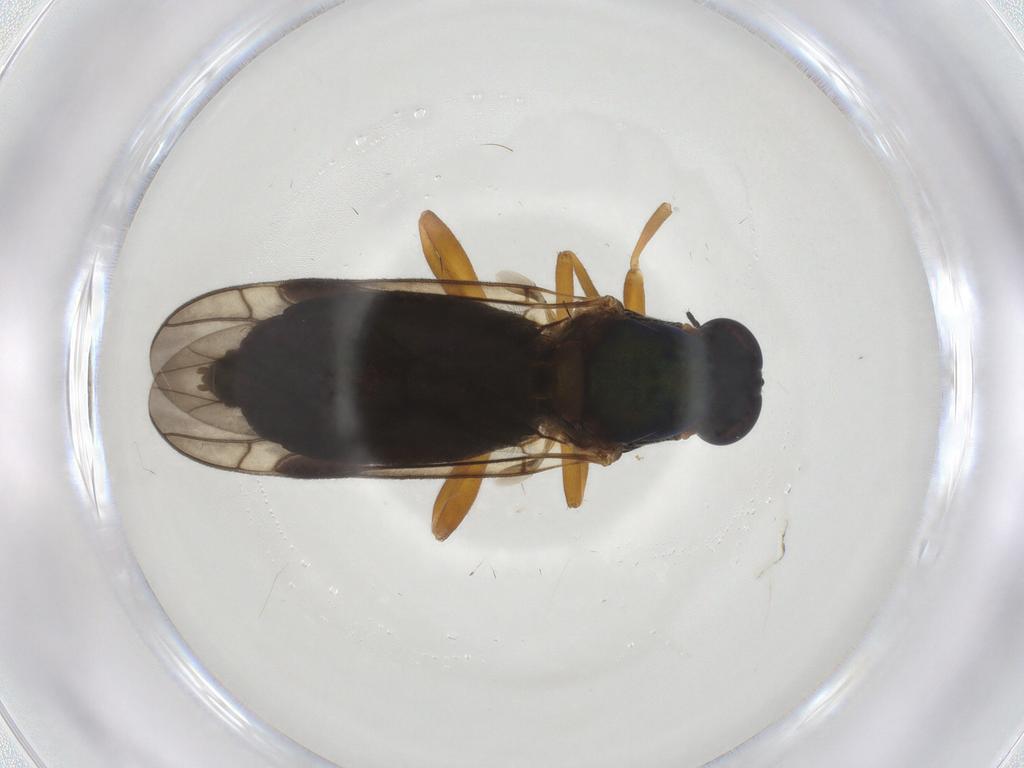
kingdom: Animalia
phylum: Arthropoda
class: Insecta
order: Diptera
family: Stratiomyidae
